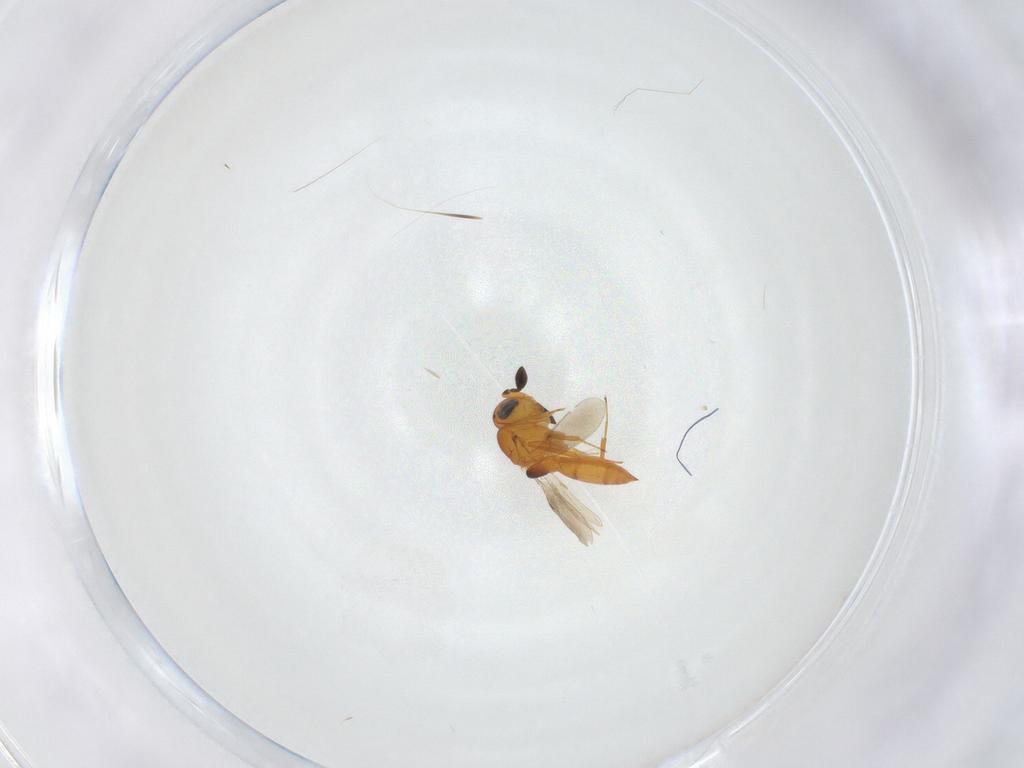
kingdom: Animalia
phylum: Arthropoda
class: Insecta
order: Hymenoptera
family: Scelionidae
